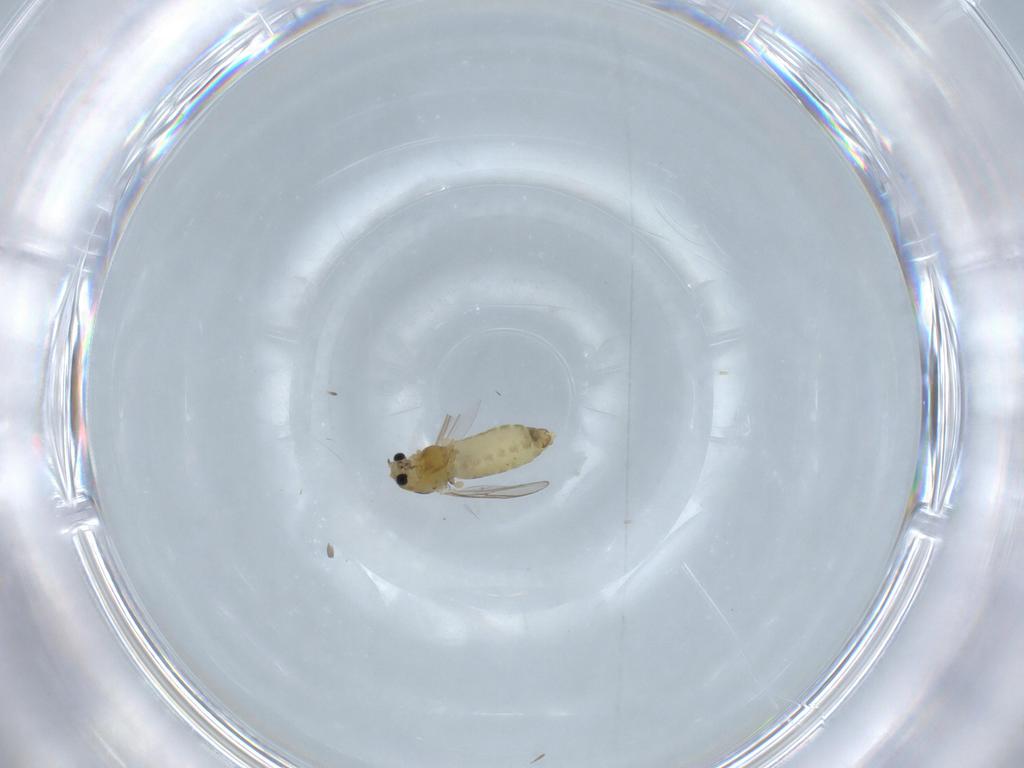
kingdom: Animalia
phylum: Arthropoda
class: Insecta
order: Diptera
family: Chironomidae
